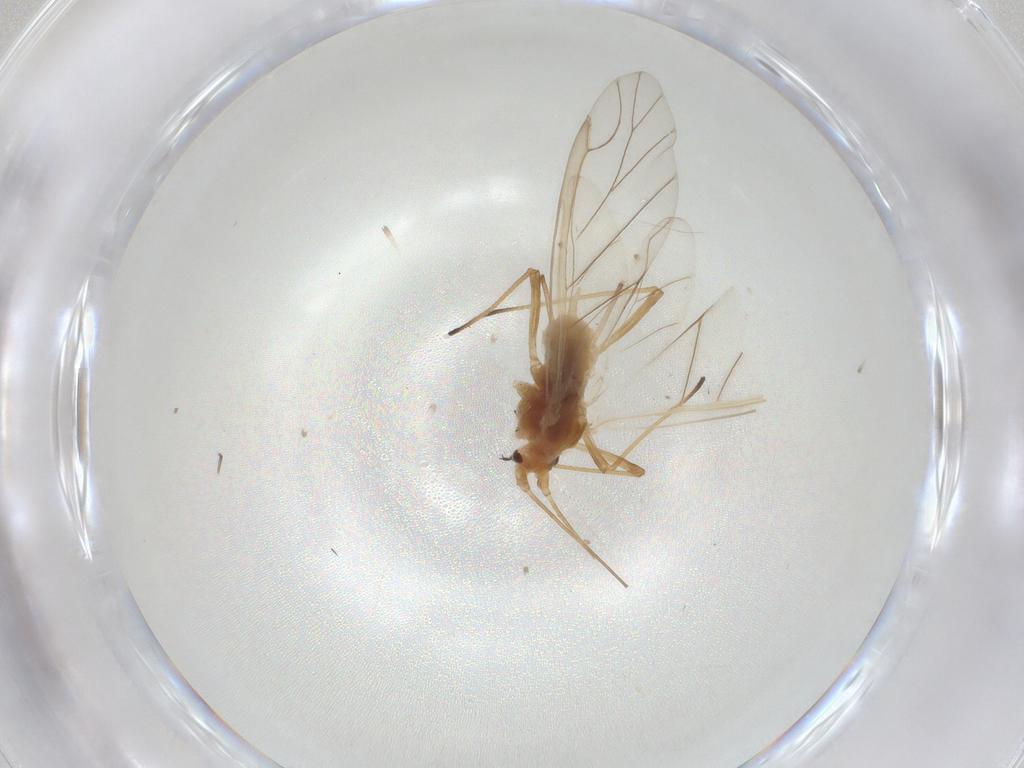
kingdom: Animalia
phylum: Arthropoda
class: Insecta
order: Hemiptera
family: Aphididae
